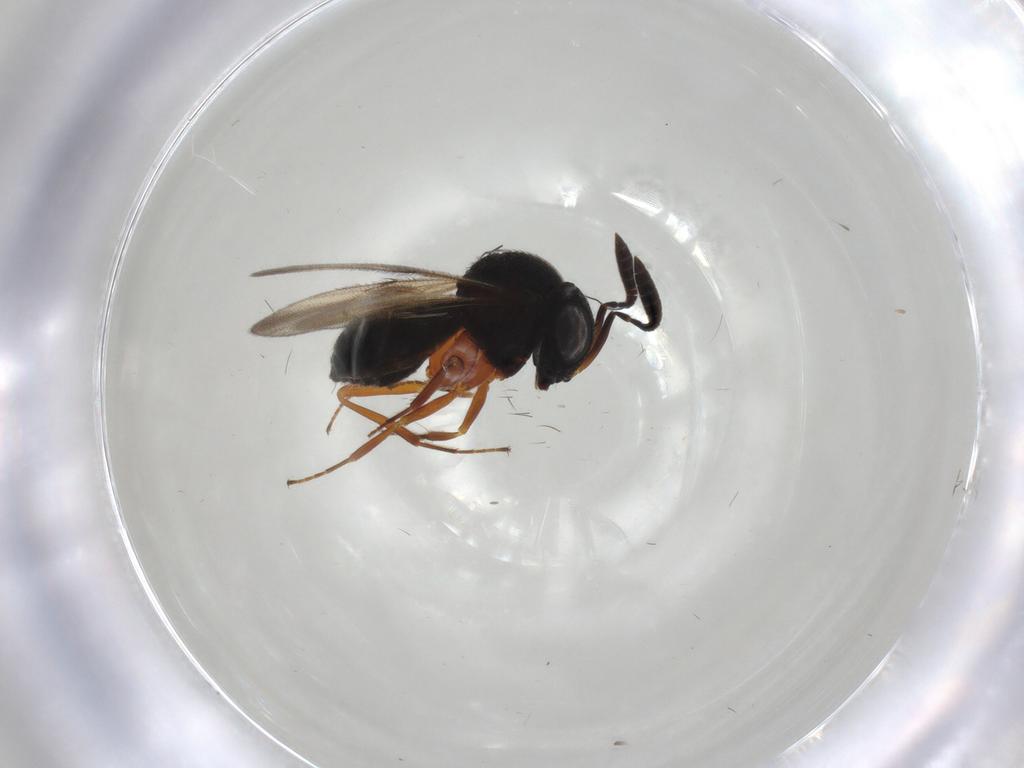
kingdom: Animalia
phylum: Arthropoda
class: Insecta
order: Hymenoptera
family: Scelionidae
